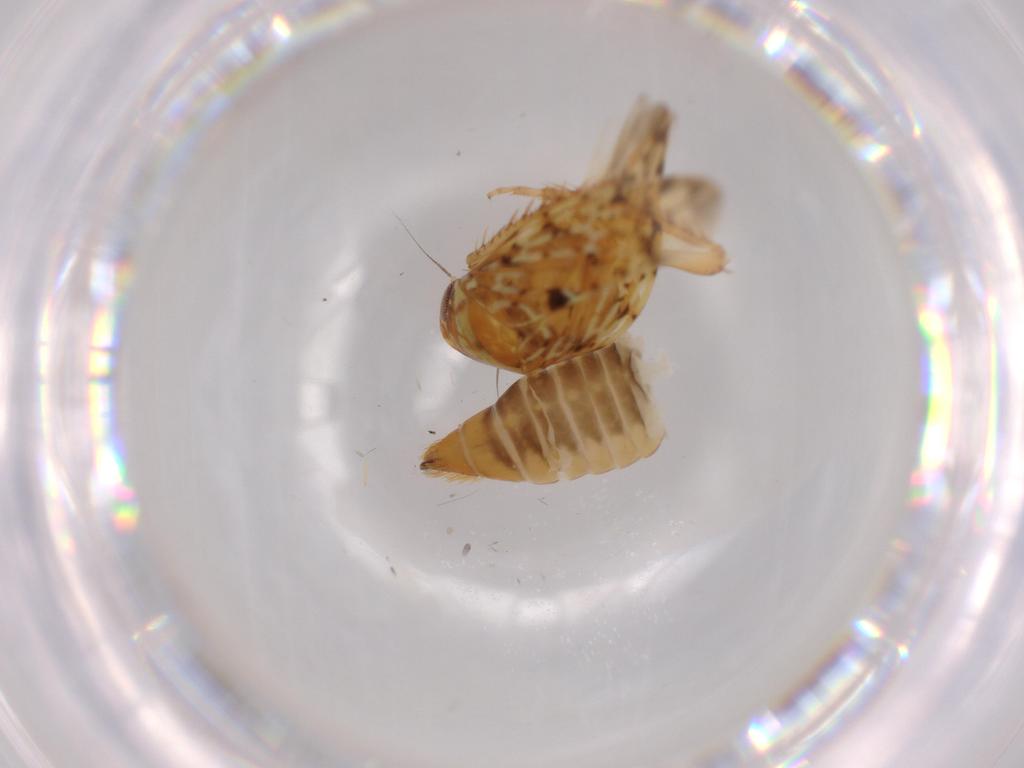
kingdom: Animalia
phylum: Arthropoda
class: Insecta
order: Hemiptera
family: Cicadellidae
